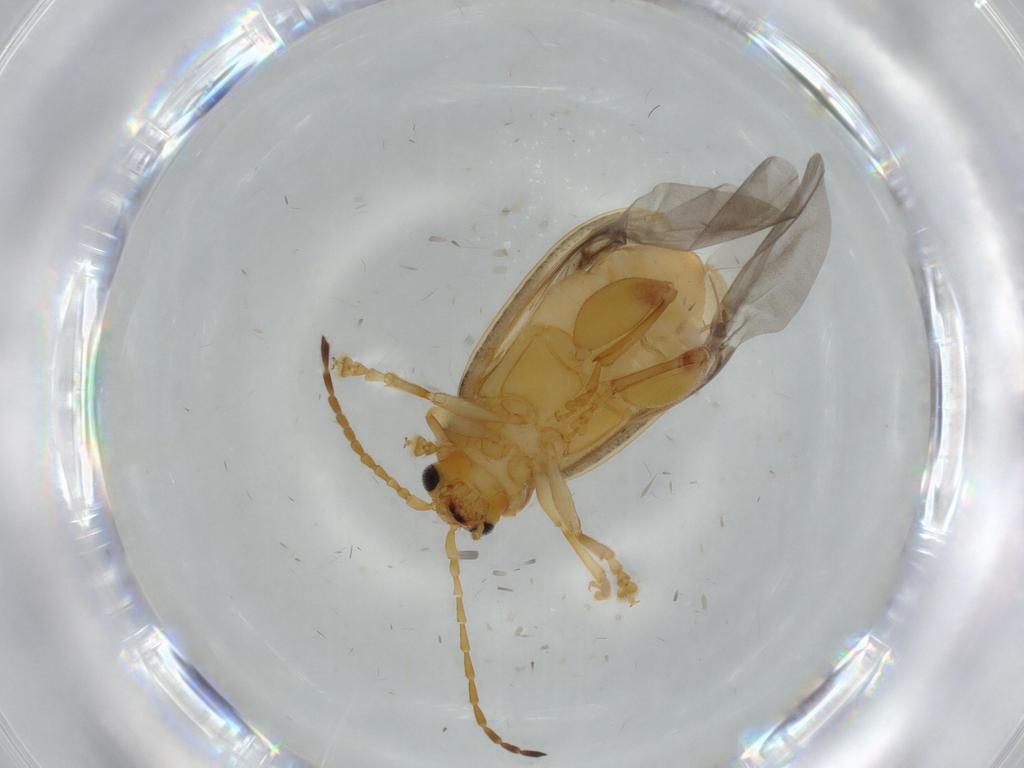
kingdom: Animalia
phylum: Arthropoda
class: Insecta
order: Coleoptera
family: Chrysomelidae
